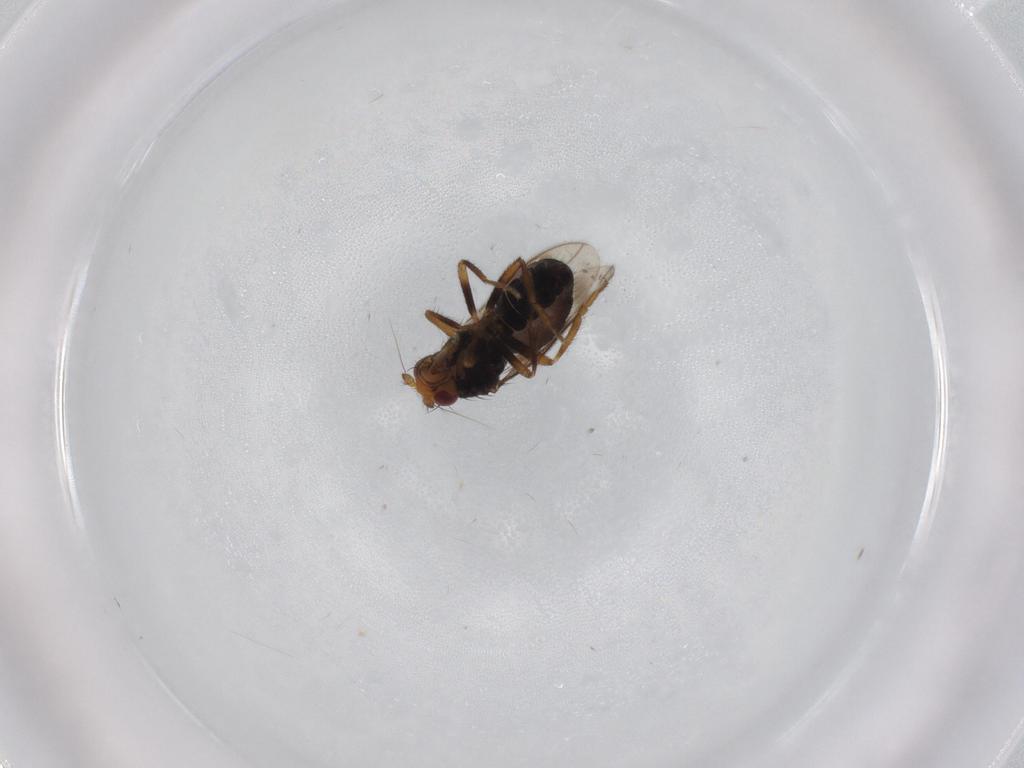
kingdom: Animalia
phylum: Arthropoda
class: Insecta
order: Diptera
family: Sphaeroceridae
